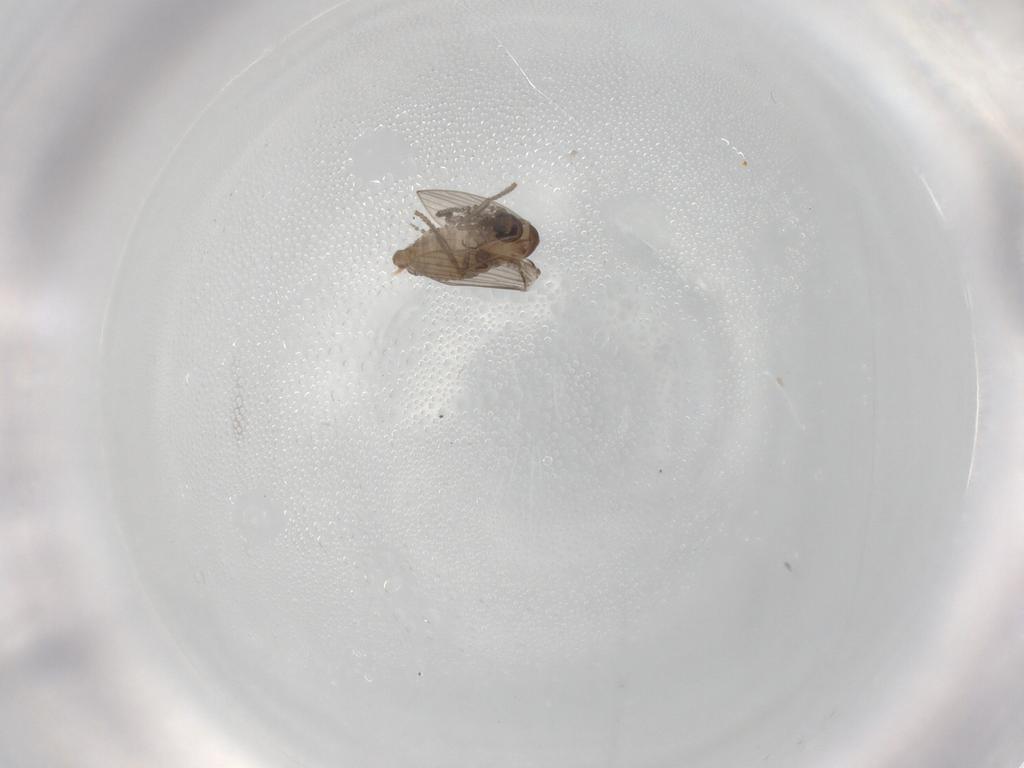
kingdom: Animalia
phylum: Arthropoda
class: Insecta
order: Diptera
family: Psychodidae
